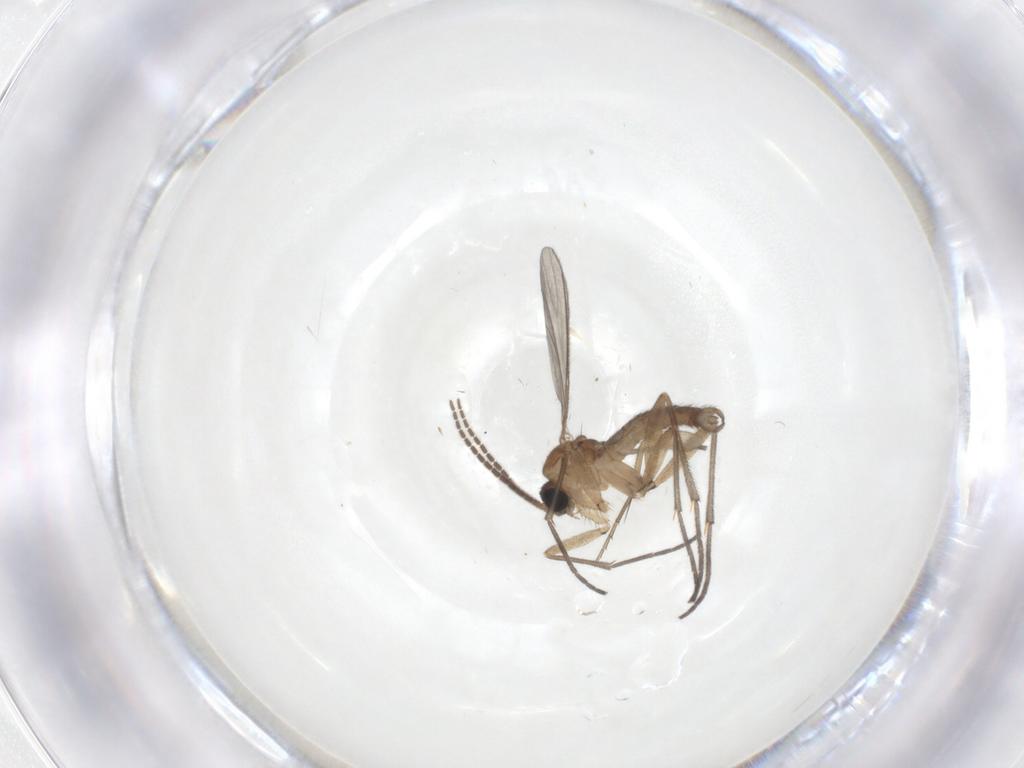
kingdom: Animalia
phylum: Arthropoda
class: Insecta
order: Diptera
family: Sciaridae
